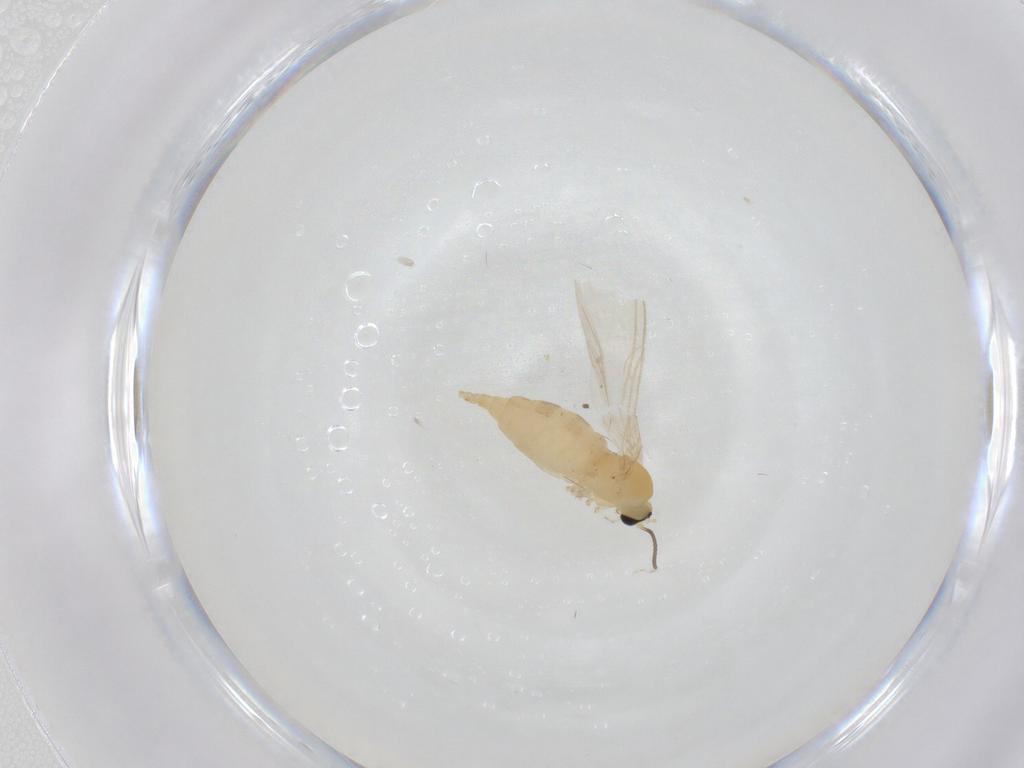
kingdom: Animalia
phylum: Arthropoda
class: Insecta
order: Diptera
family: Sciaridae
